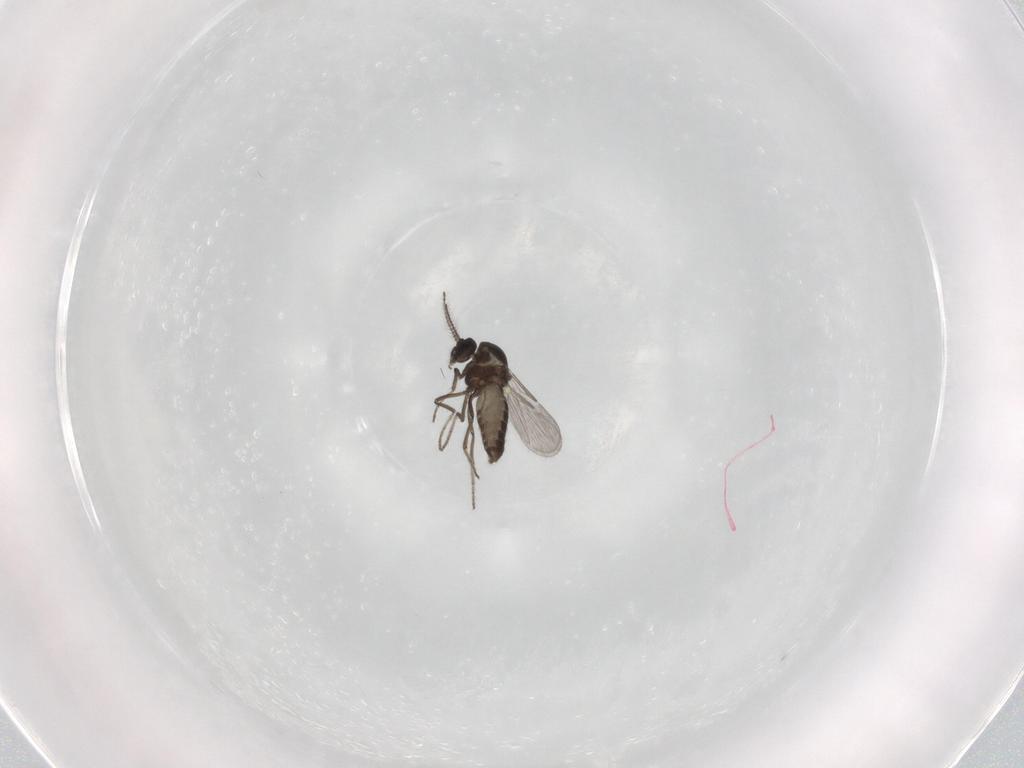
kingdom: Animalia
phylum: Arthropoda
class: Insecta
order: Diptera
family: Ceratopogonidae
